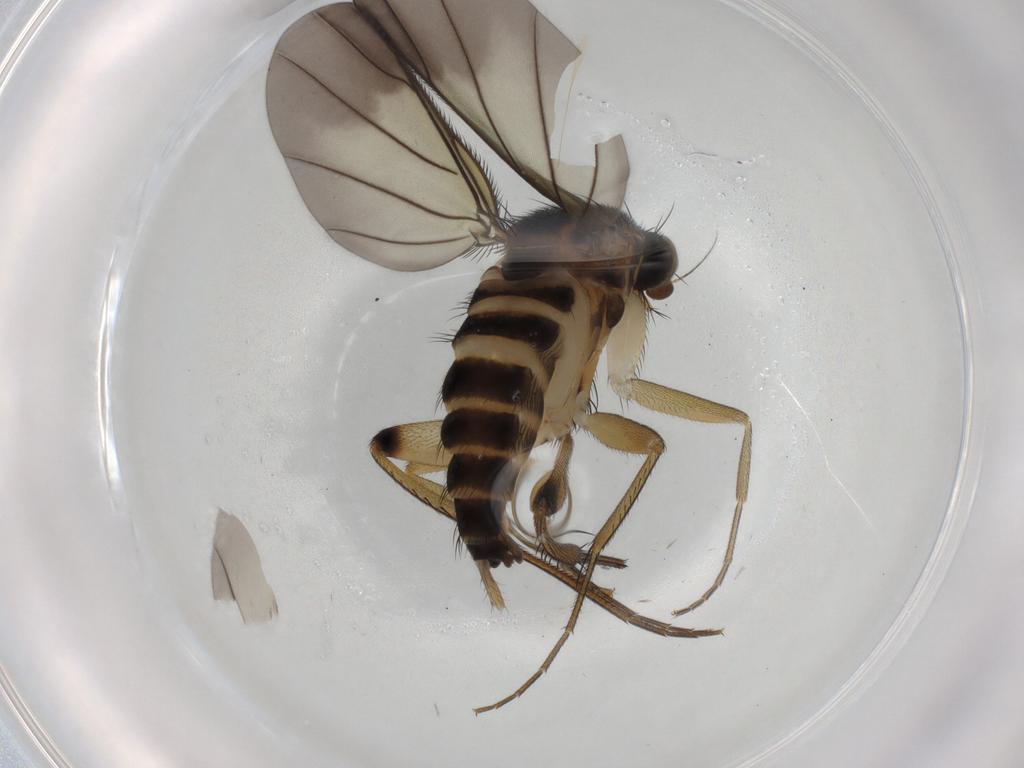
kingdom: Animalia
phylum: Arthropoda
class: Insecta
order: Diptera
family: Phoridae
